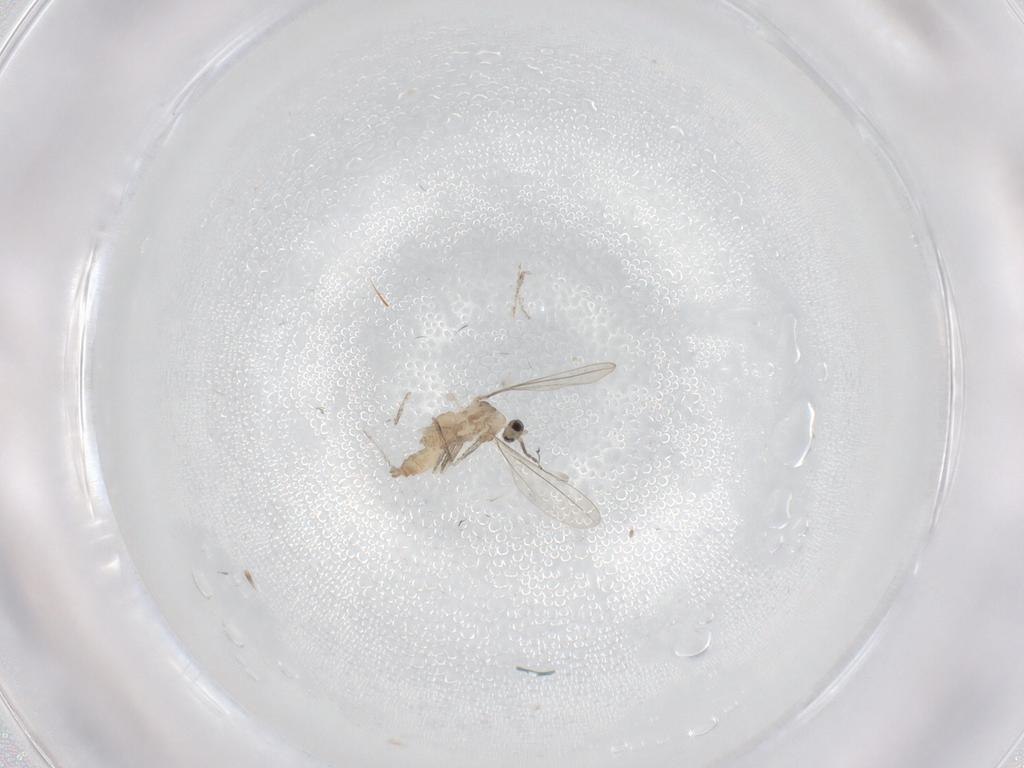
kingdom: Animalia
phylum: Arthropoda
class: Insecta
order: Diptera
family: Cecidomyiidae
